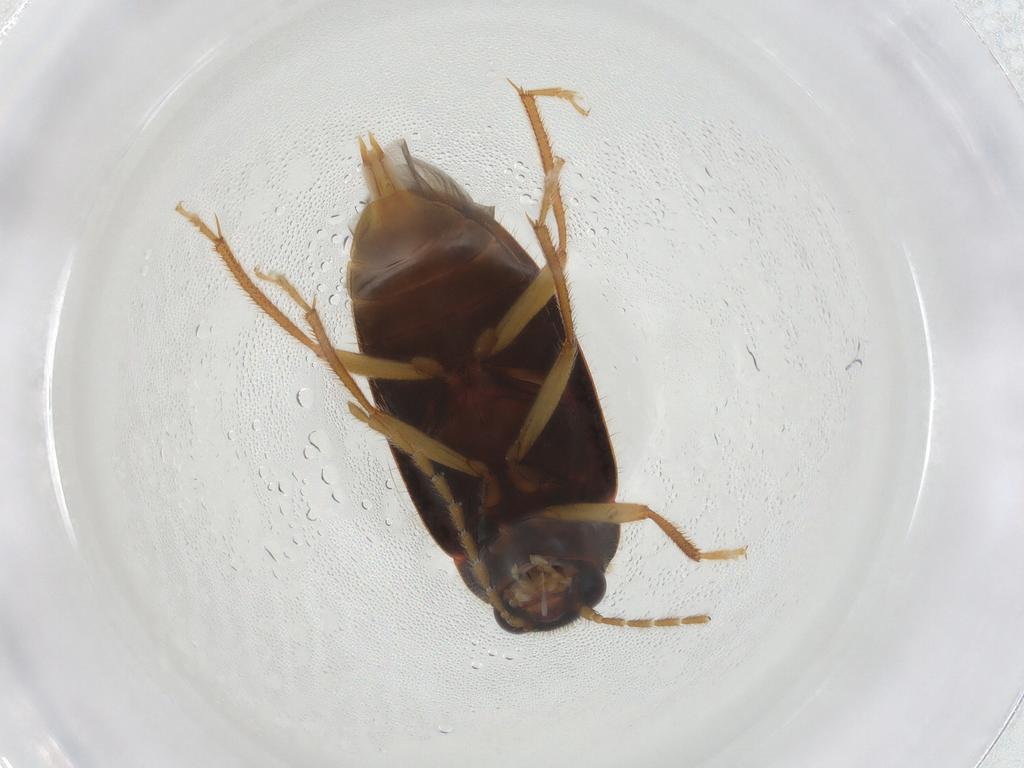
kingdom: Animalia
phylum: Arthropoda
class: Insecta
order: Coleoptera
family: Ptilodactylidae
